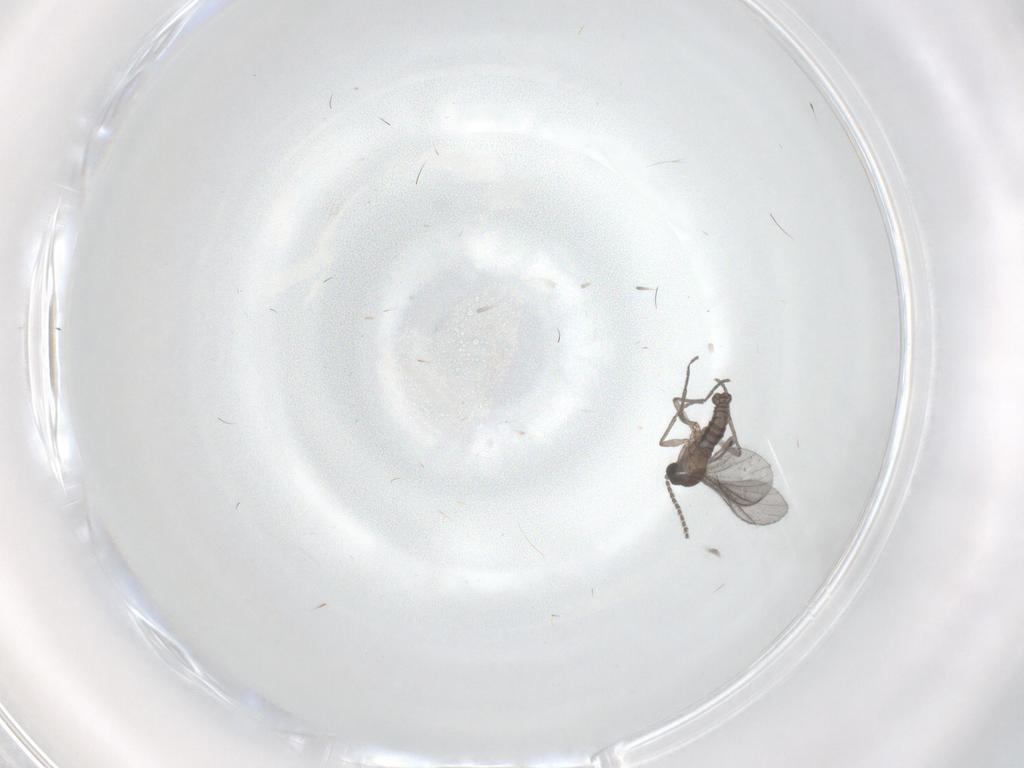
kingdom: Animalia
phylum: Arthropoda
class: Insecta
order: Diptera
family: Sciaridae
